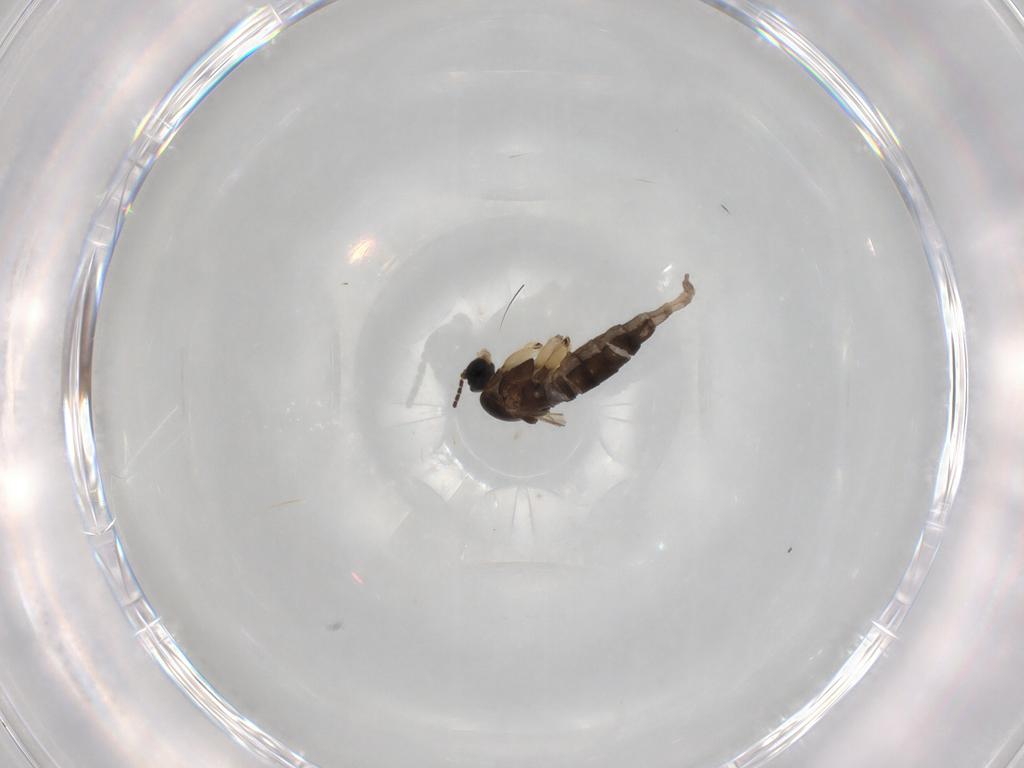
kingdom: Animalia
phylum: Arthropoda
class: Insecta
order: Diptera
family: Sciaridae
